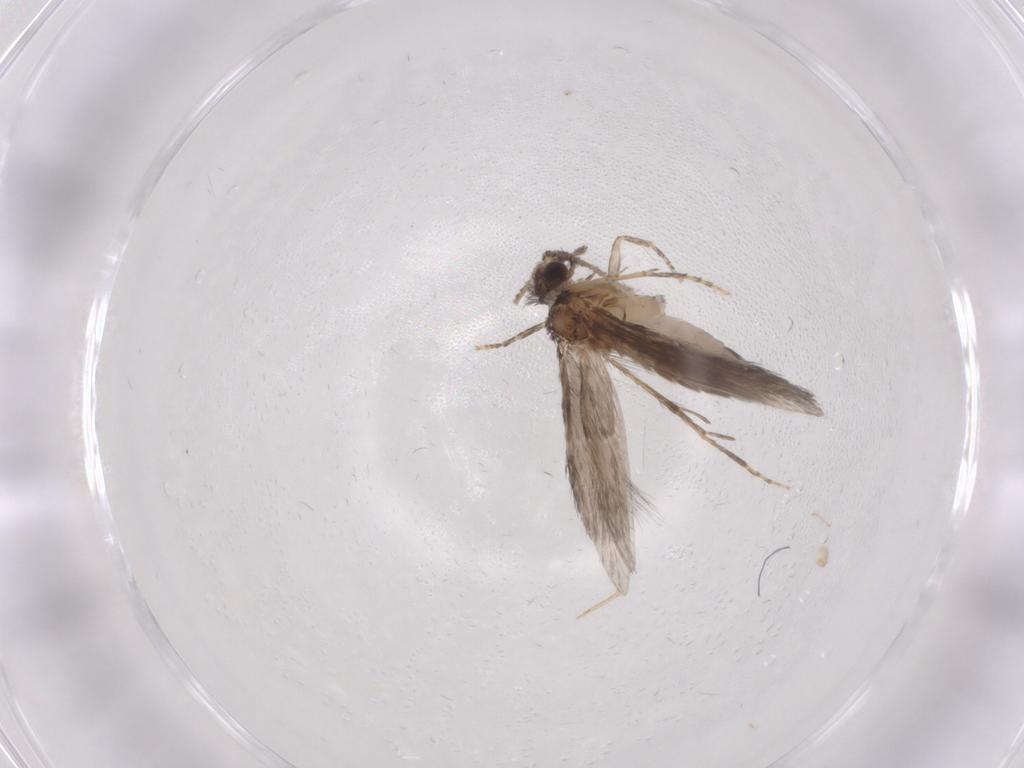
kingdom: Animalia
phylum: Arthropoda
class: Insecta
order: Trichoptera
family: Hydroptilidae
